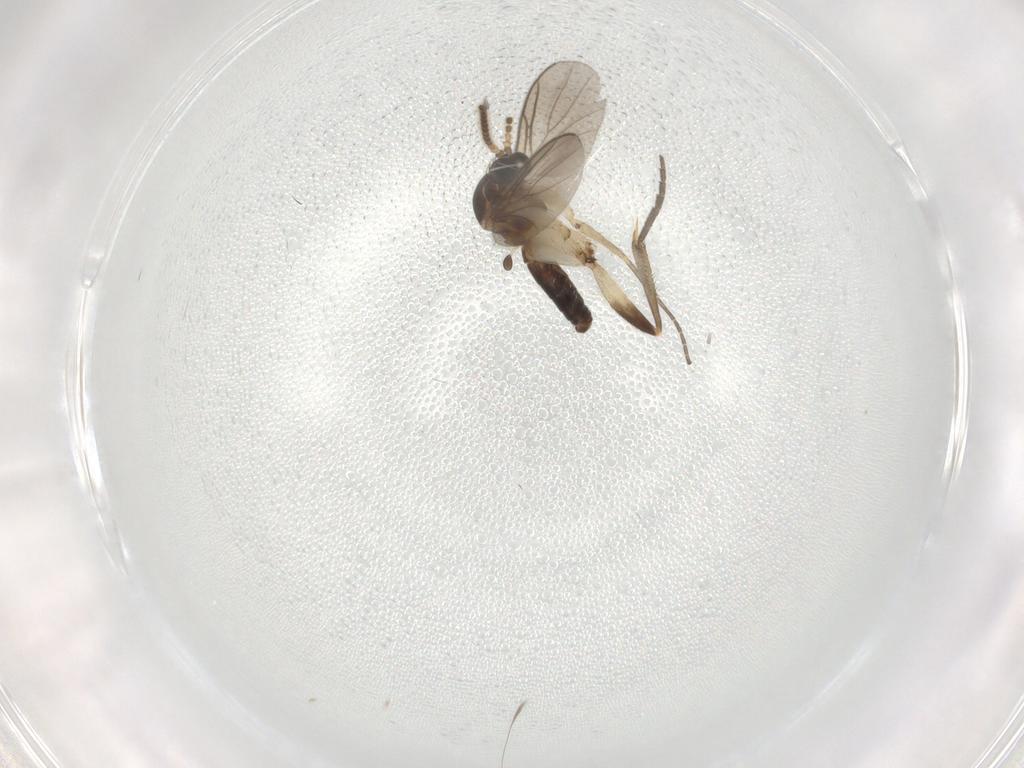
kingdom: Animalia
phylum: Arthropoda
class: Insecta
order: Diptera
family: Mycetophilidae
